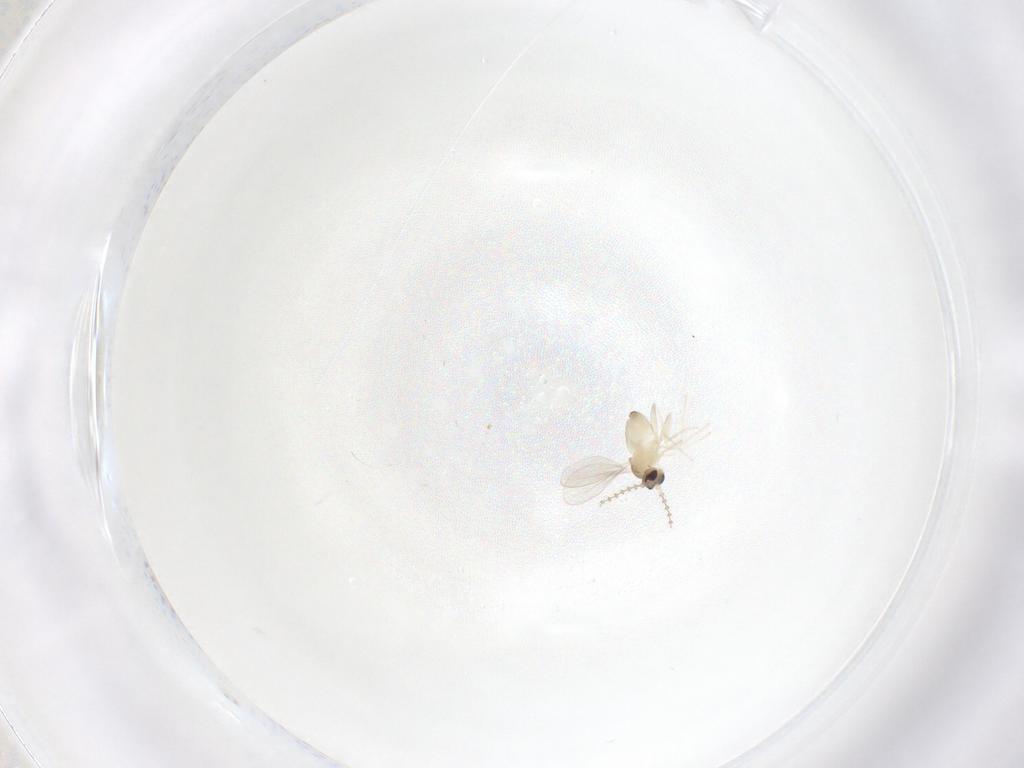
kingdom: Animalia
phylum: Arthropoda
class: Insecta
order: Diptera
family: Cecidomyiidae
